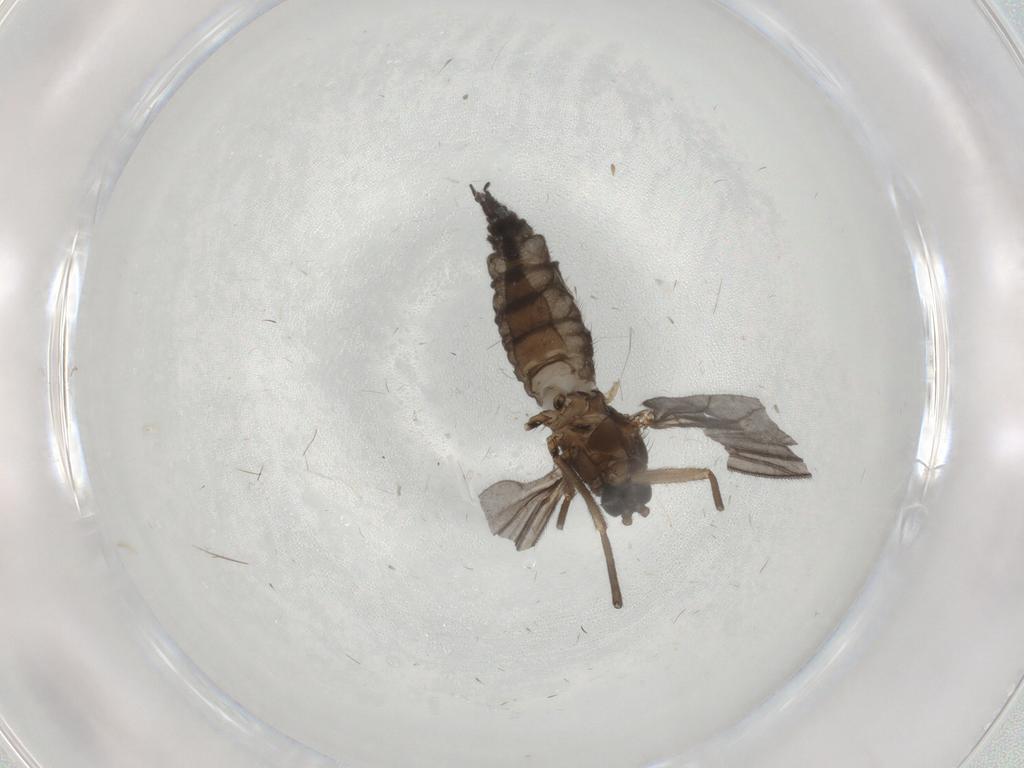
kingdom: Animalia
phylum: Arthropoda
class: Insecta
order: Diptera
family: Sciaridae
